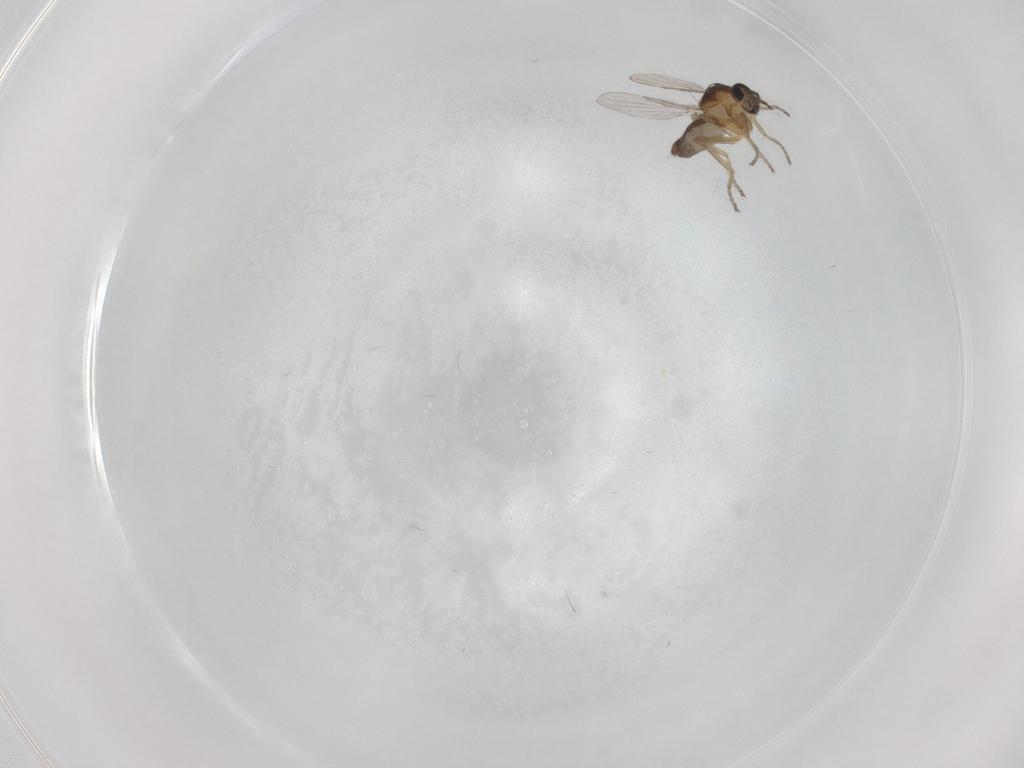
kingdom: Animalia
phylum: Arthropoda
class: Insecta
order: Diptera
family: Ceratopogonidae
